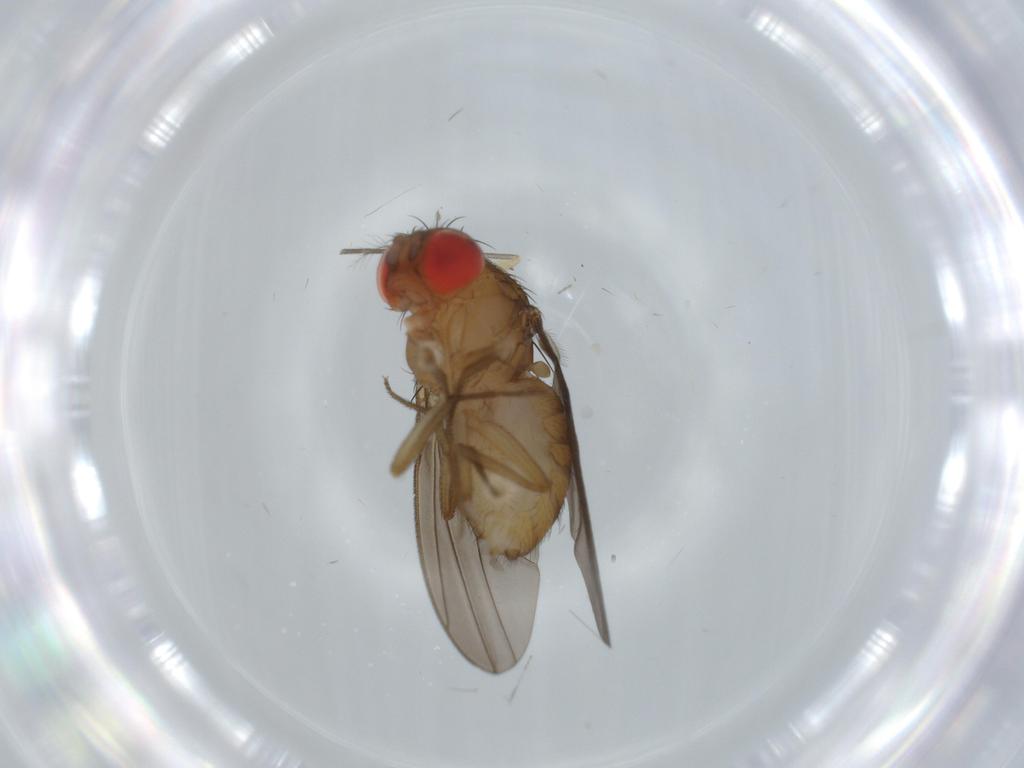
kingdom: Animalia
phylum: Arthropoda
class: Insecta
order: Diptera
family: Drosophilidae
